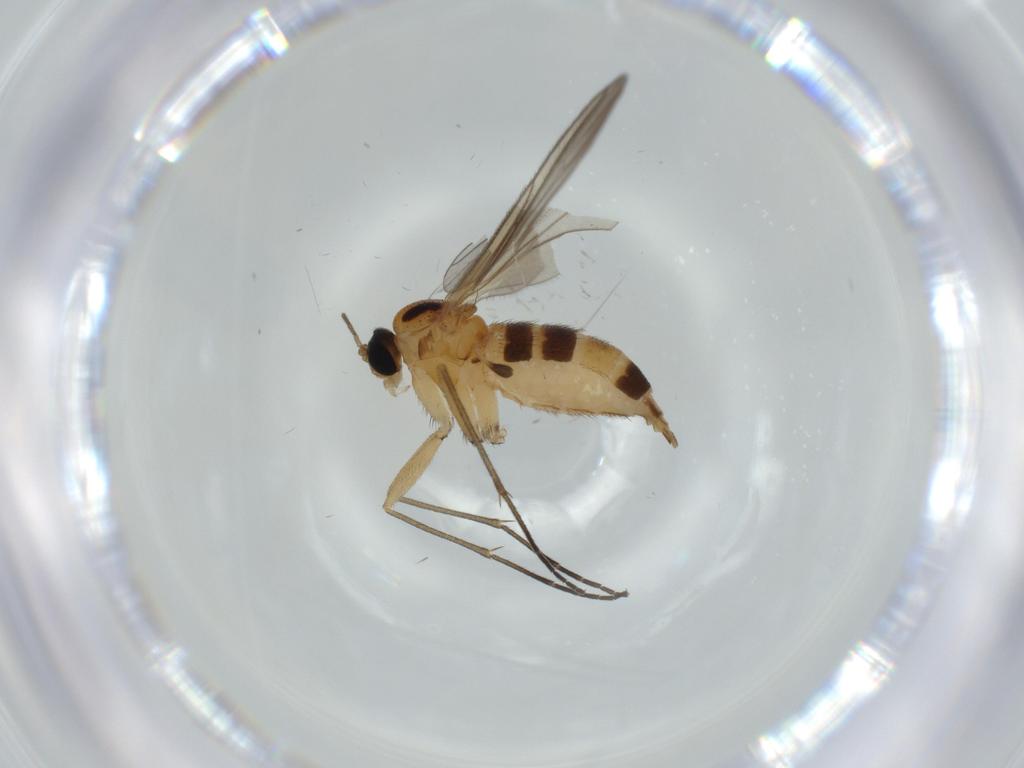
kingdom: Animalia
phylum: Arthropoda
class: Insecta
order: Diptera
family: Sciaridae
